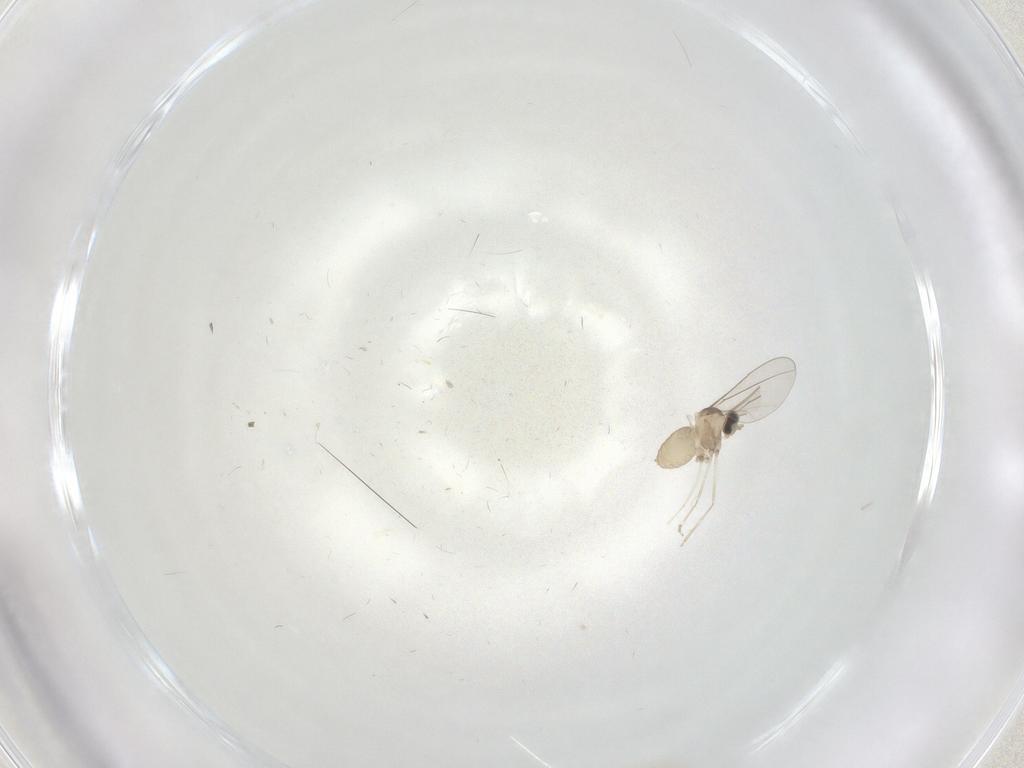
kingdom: Animalia
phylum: Arthropoda
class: Insecta
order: Diptera
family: Cecidomyiidae
